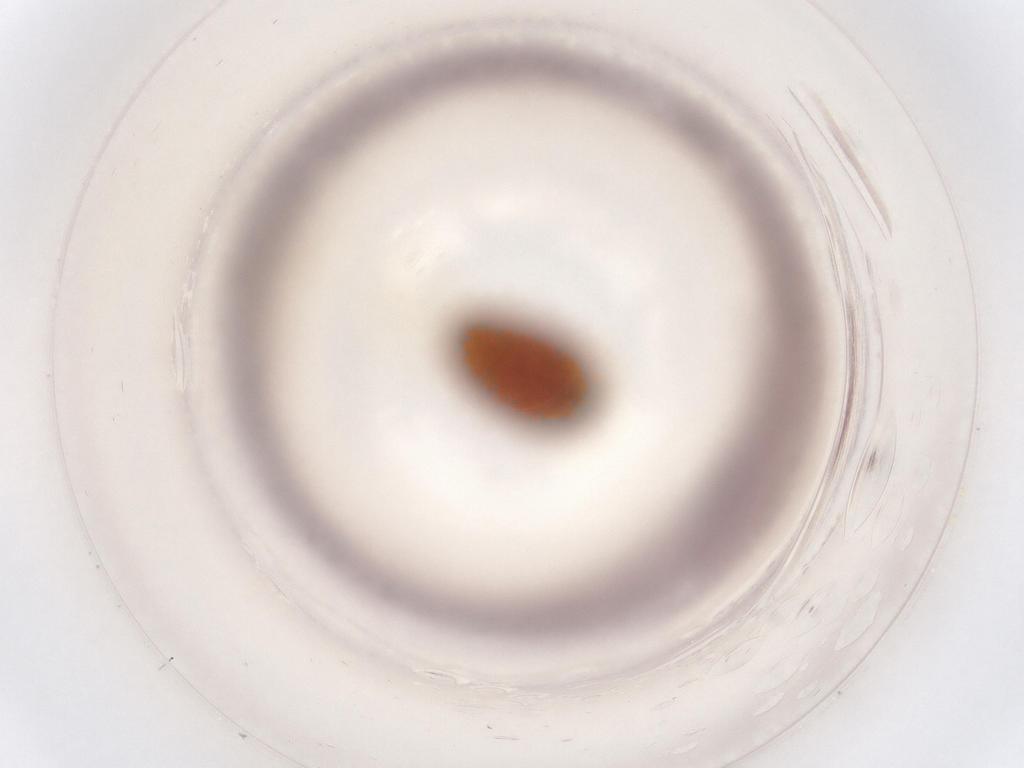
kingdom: Animalia
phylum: Arthropoda
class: Insecta
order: Coleoptera
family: Corylophidae
